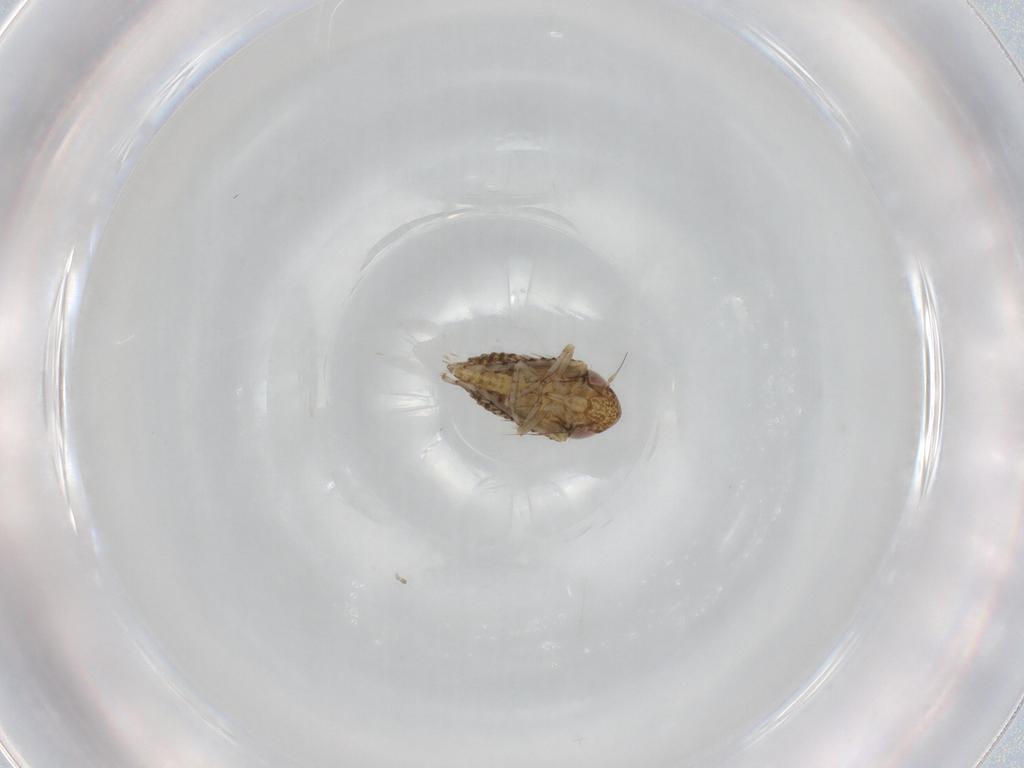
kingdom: Animalia
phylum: Arthropoda
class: Insecta
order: Hemiptera
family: Cicadellidae
